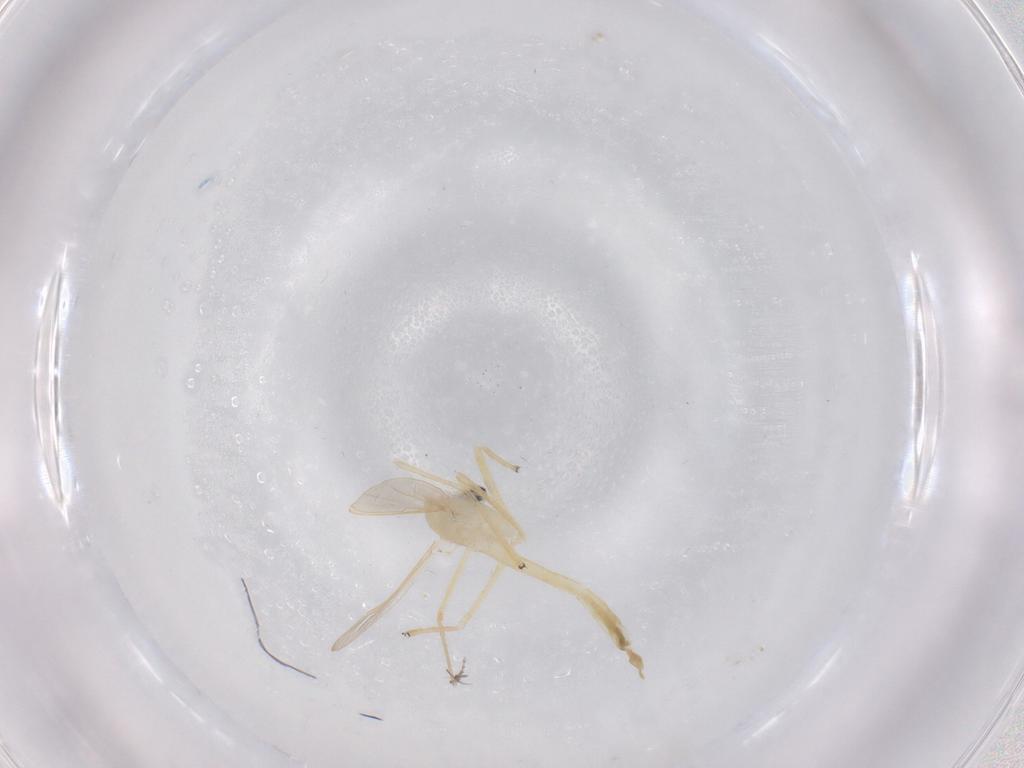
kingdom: Animalia
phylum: Arthropoda
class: Insecta
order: Diptera
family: Chironomidae
